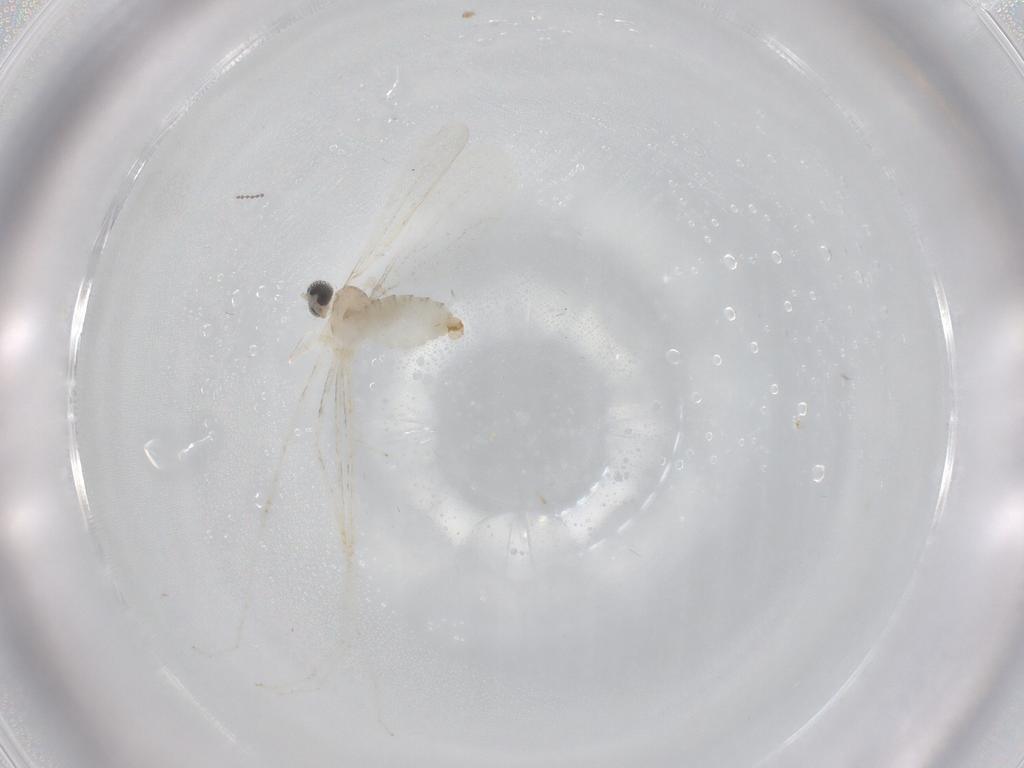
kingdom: Animalia
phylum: Arthropoda
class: Insecta
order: Diptera
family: Cecidomyiidae
